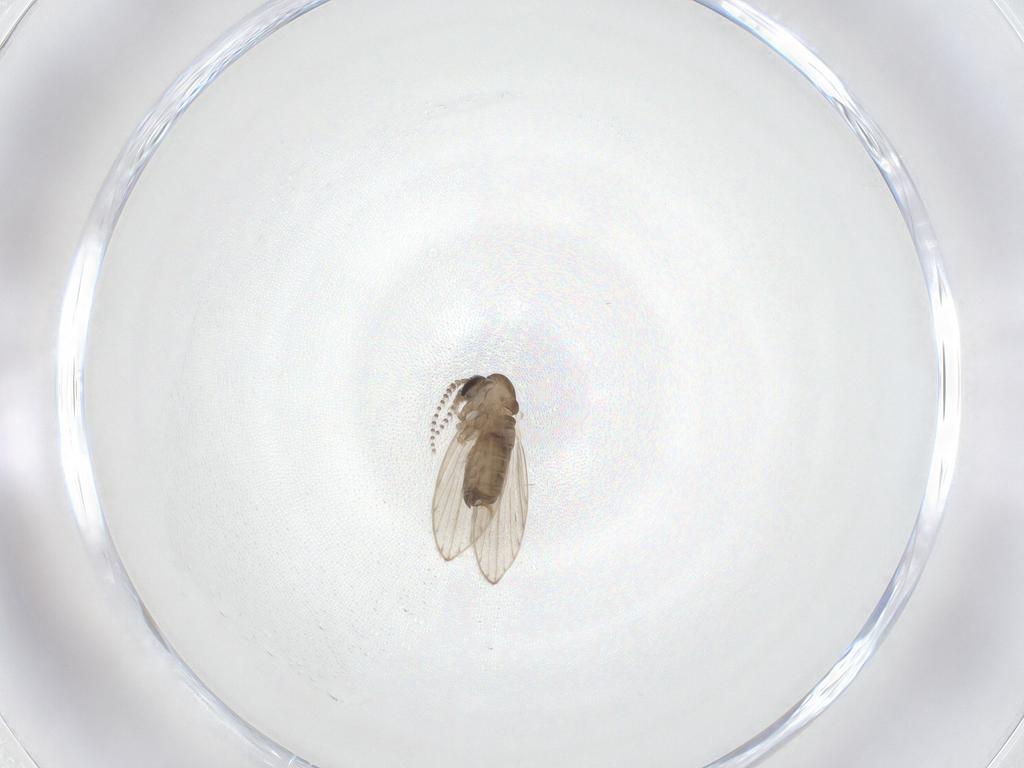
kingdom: Animalia
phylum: Arthropoda
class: Insecta
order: Diptera
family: Psychodidae
